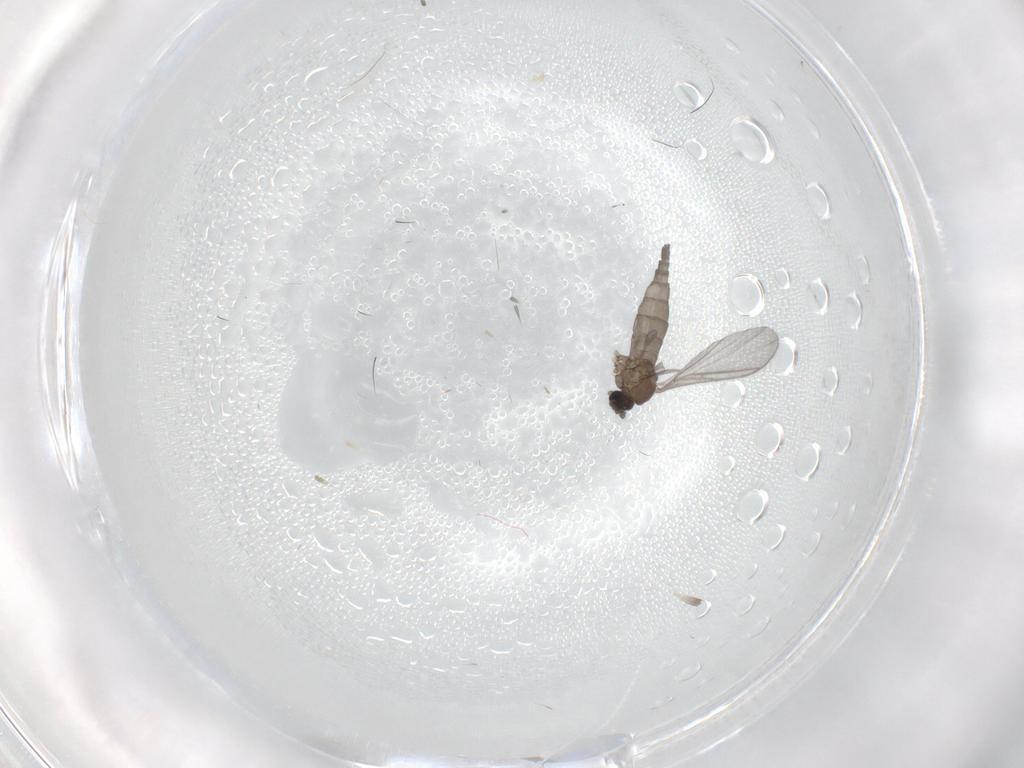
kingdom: Animalia
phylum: Arthropoda
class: Insecta
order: Diptera
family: Sciaridae
